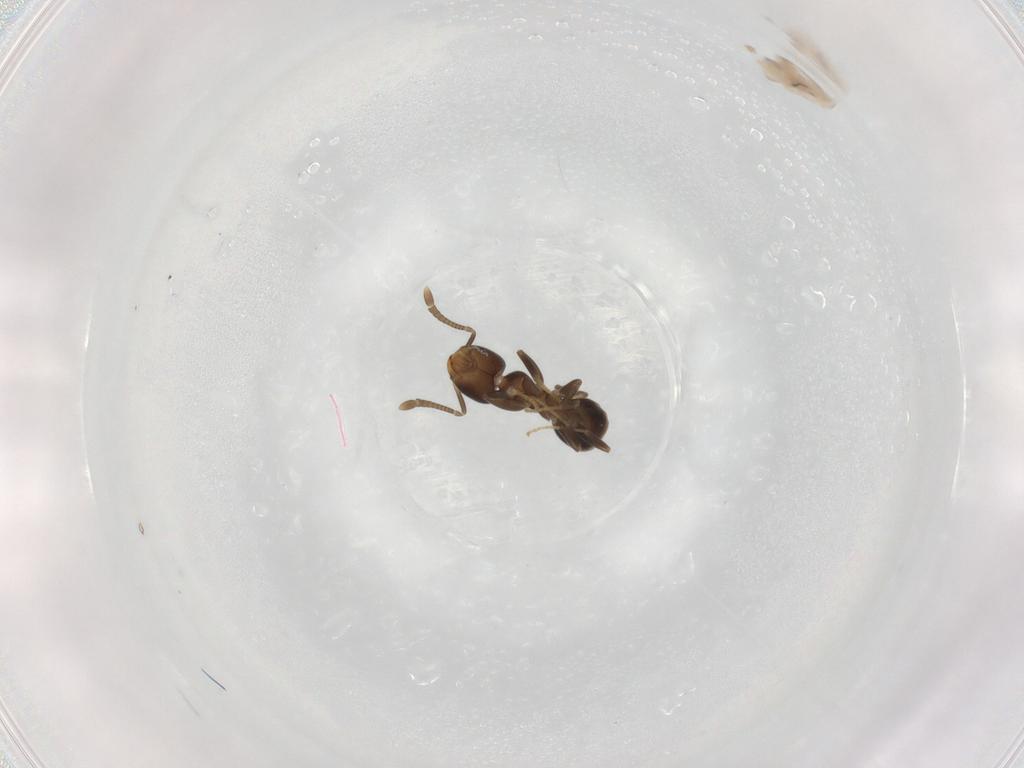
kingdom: Animalia
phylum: Arthropoda
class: Insecta
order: Hymenoptera
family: Formicidae
